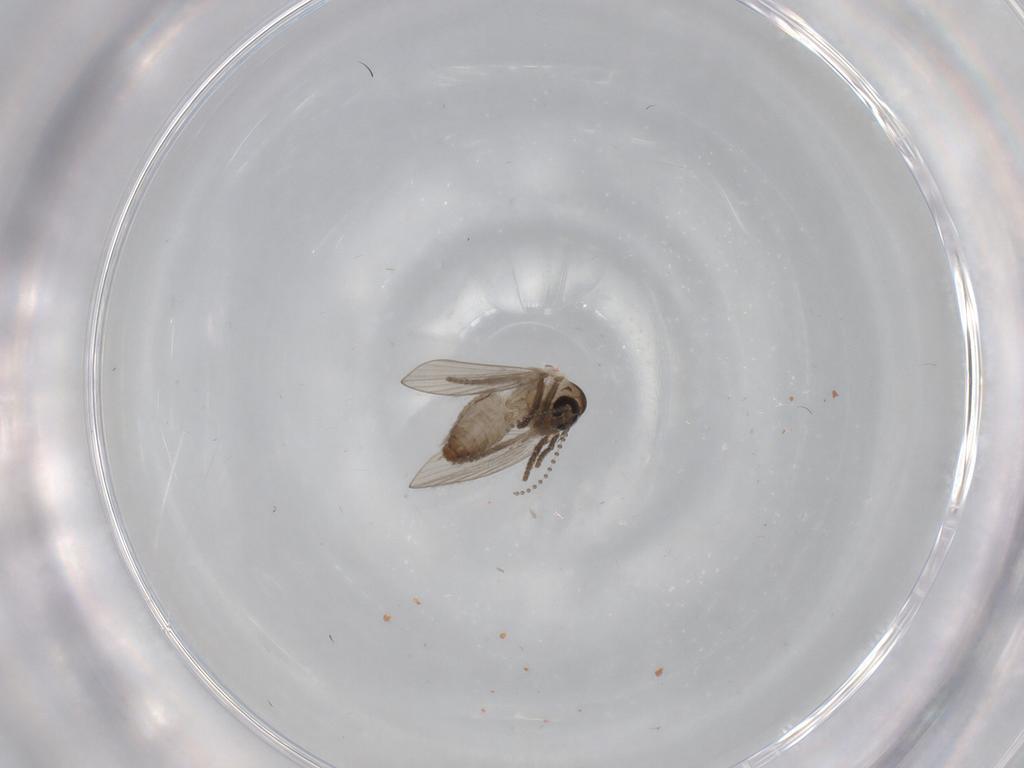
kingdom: Animalia
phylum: Arthropoda
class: Insecta
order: Diptera
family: Psychodidae
